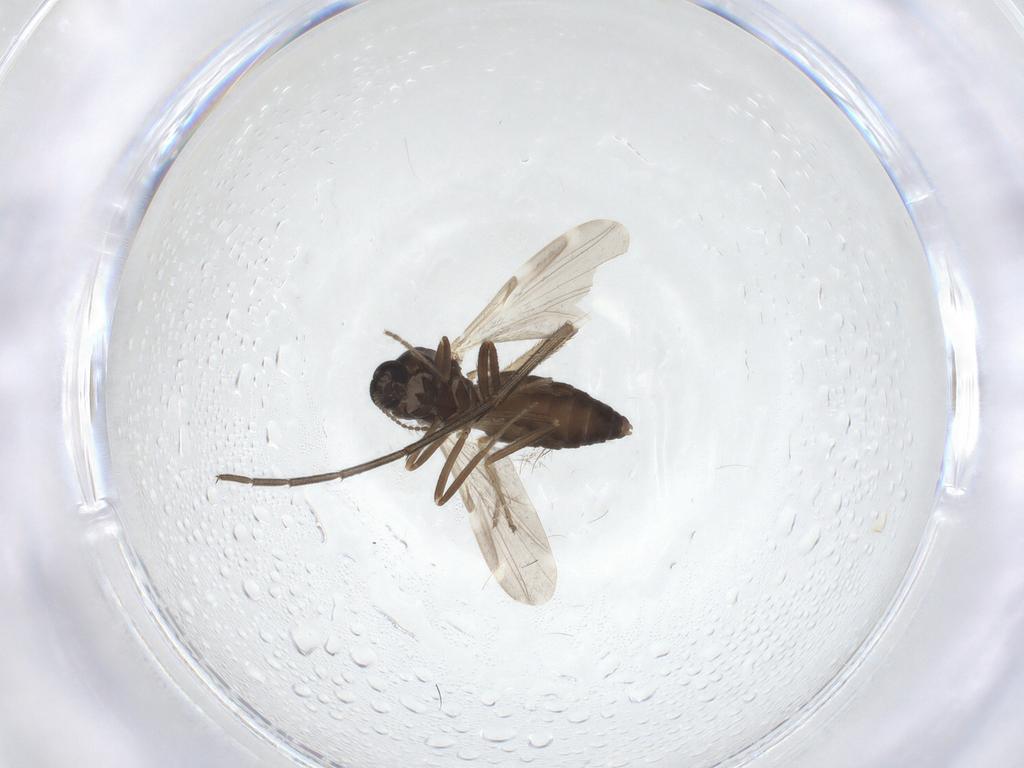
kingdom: Animalia
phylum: Arthropoda
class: Insecta
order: Diptera
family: Ceratopogonidae
